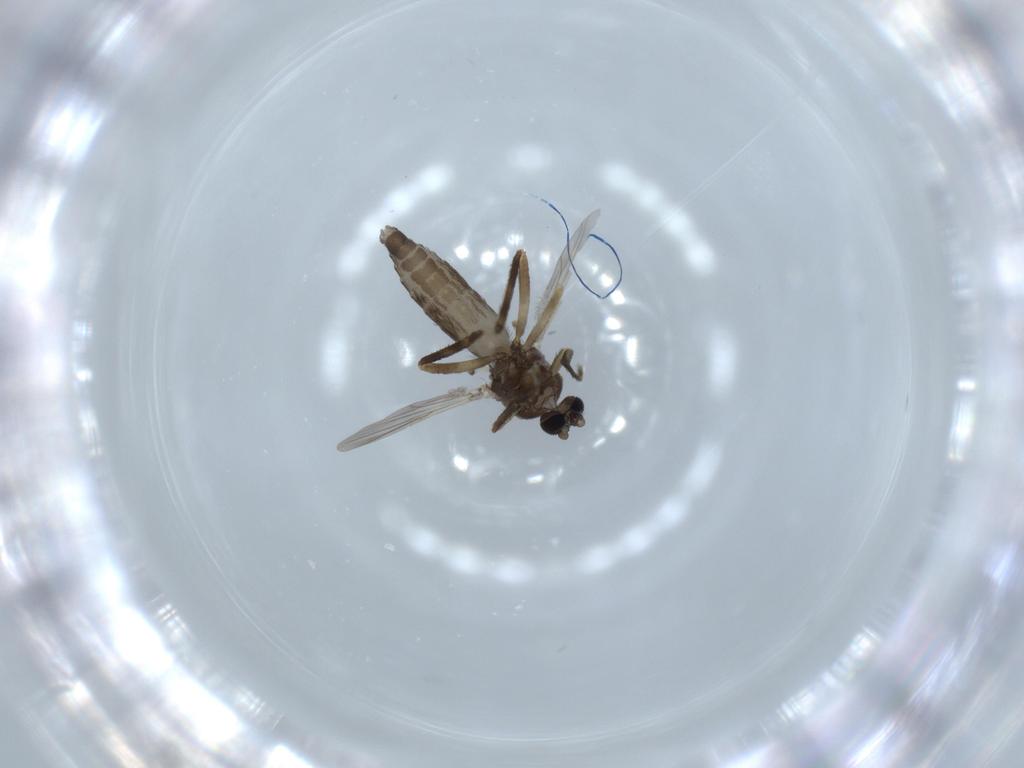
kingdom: Animalia
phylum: Arthropoda
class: Insecta
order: Diptera
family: Ceratopogonidae
